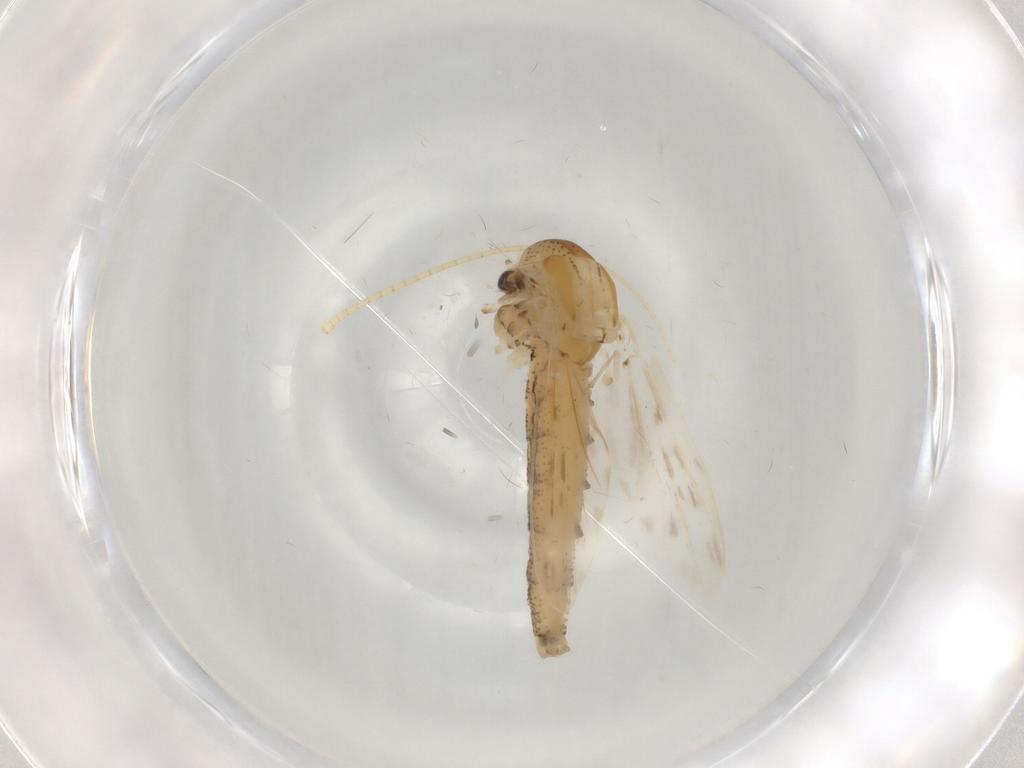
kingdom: Animalia
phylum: Arthropoda
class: Insecta
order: Diptera
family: Chaoboridae
